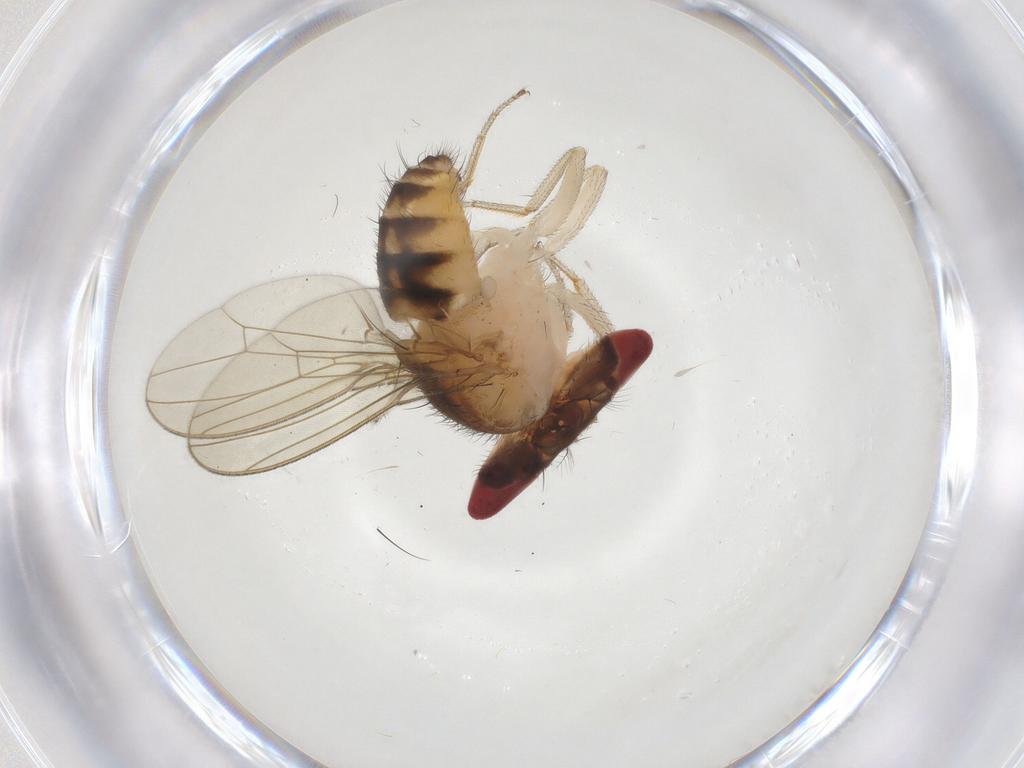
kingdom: Animalia
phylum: Arthropoda
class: Insecta
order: Diptera
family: Drosophilidae
